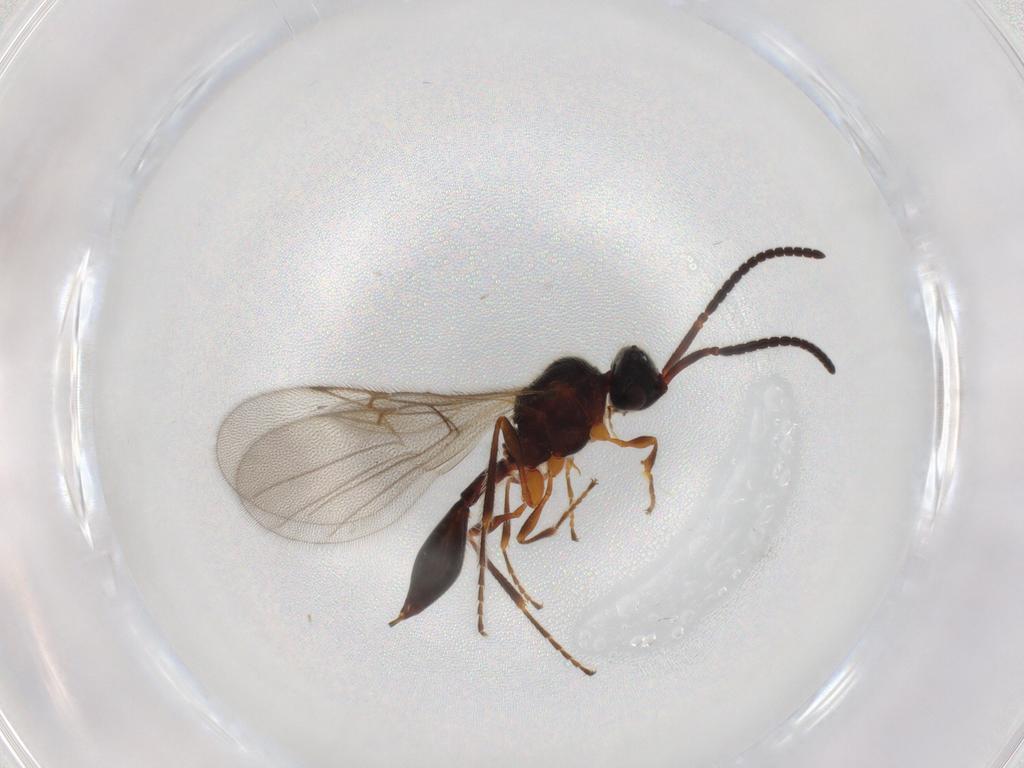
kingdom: Animalia
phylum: Arthropoda
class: Insecta
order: Hymenoptera
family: Diapriidae
